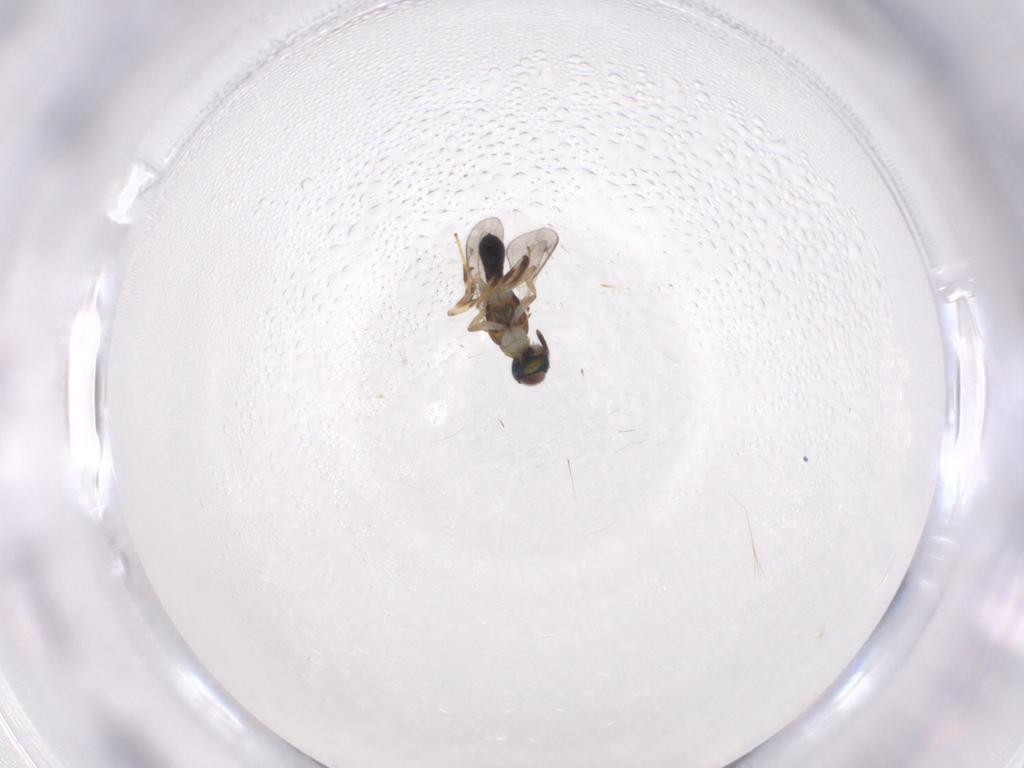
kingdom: Animalia
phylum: Arthropoda
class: Insecta
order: Hymenoptera
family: Eupelmidae
